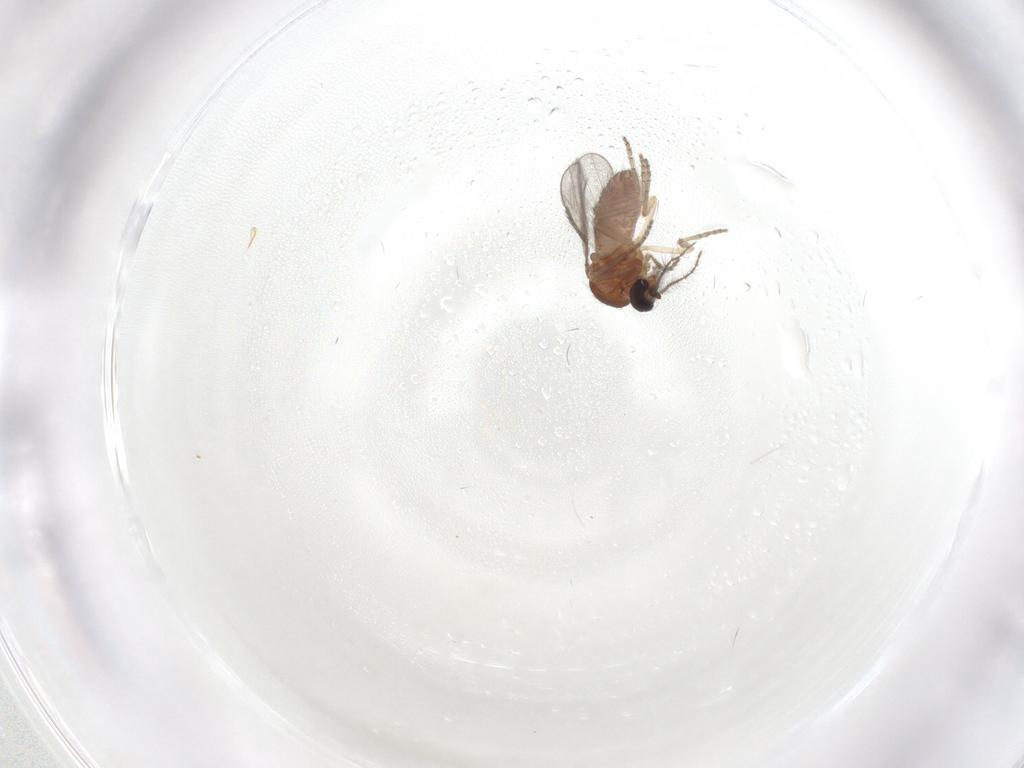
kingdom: Animalia
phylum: Arthropoda
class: Insecta
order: Diptera
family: Ceratopogonidae
